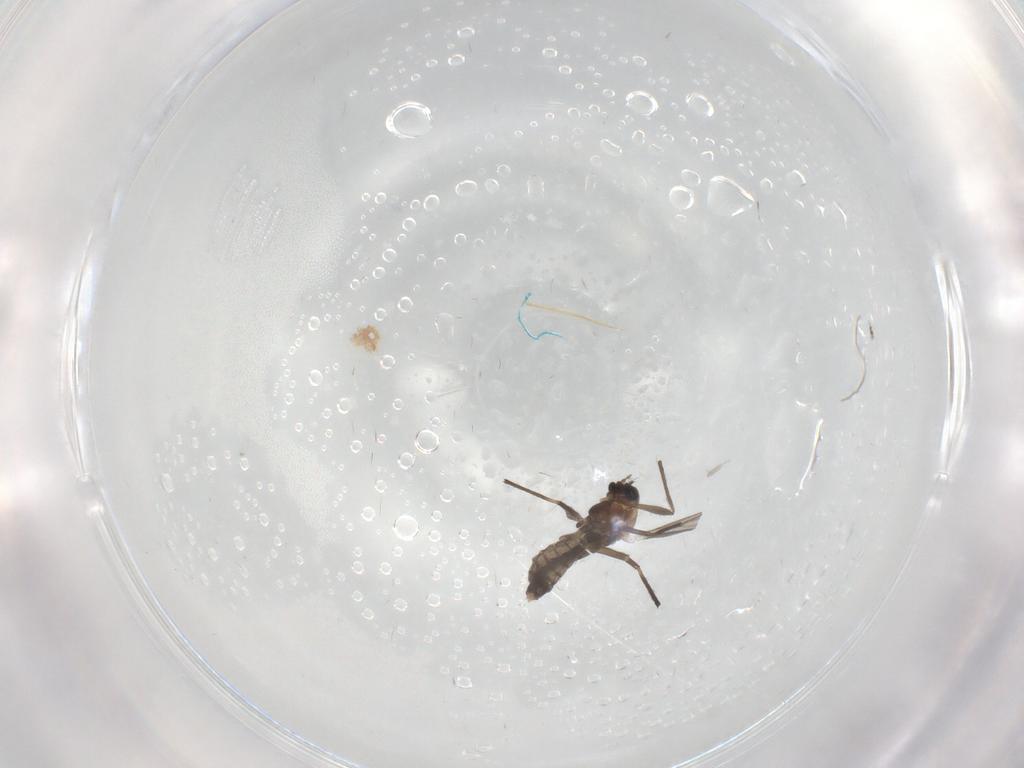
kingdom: Animalia
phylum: Arthropoda
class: Insecta
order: Diptera
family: Chironomidae
